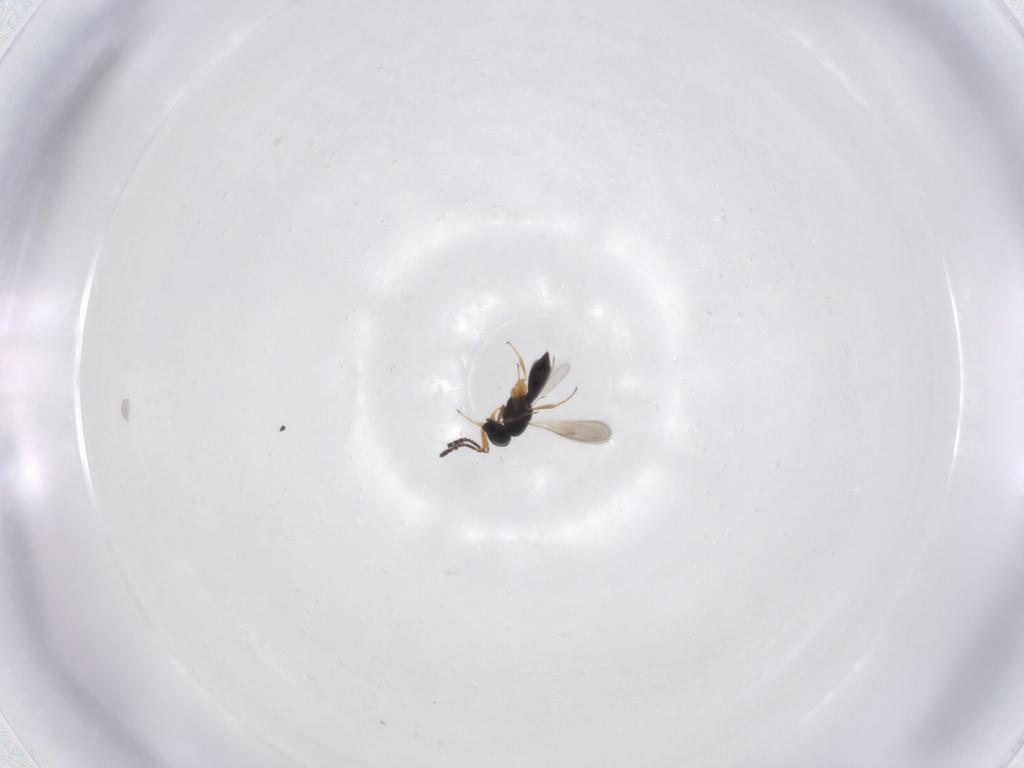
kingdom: Animalia
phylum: Arthropoda
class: Insecta
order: Hymenoptera
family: Scelionidae
